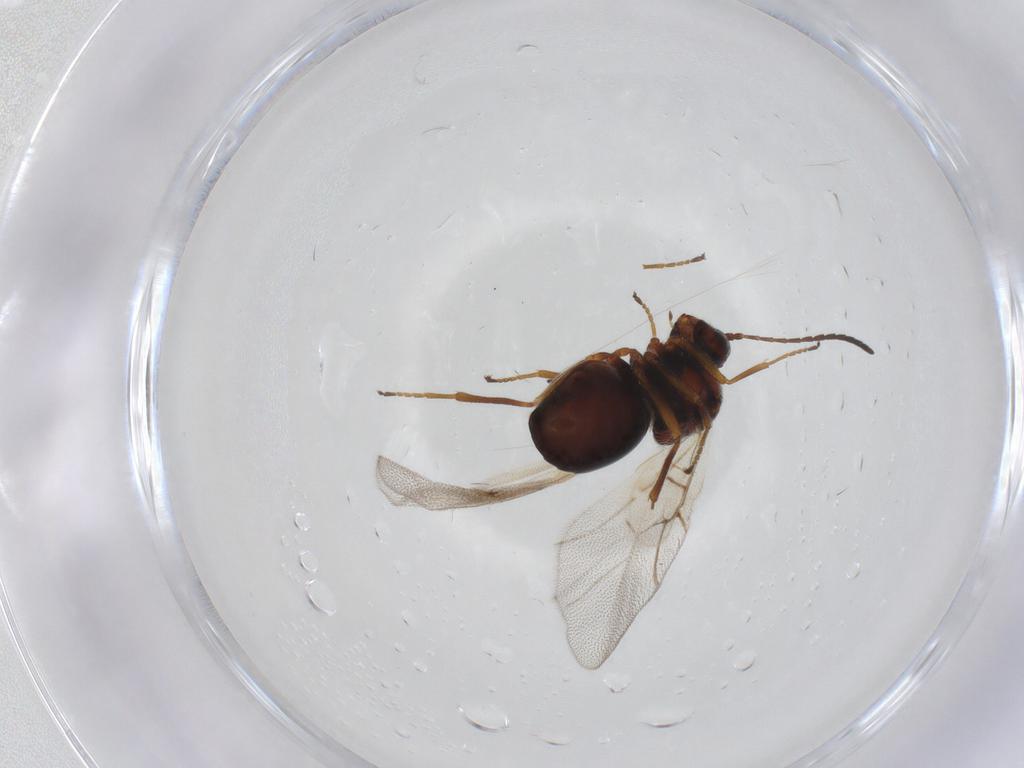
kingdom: Animalia
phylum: Arthropoda
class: Insecta
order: Hymenoptera
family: Cynipidae
